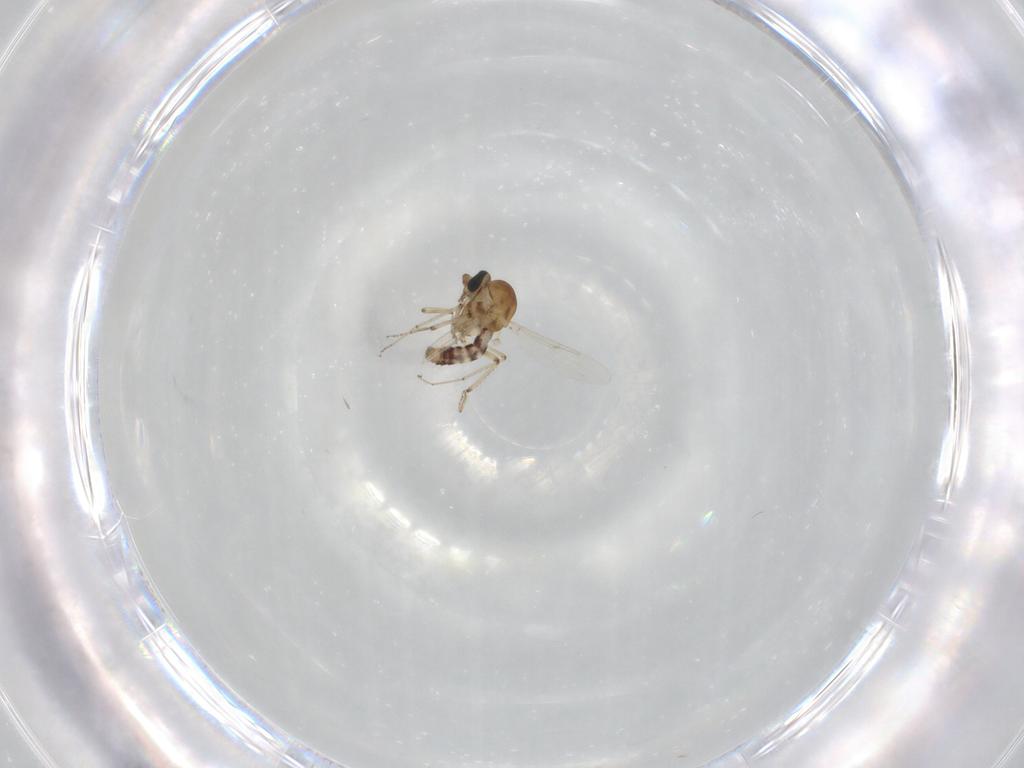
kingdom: Animalia
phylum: Arthropoda
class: Insecta
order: Diptera
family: Ceratopogonidae
